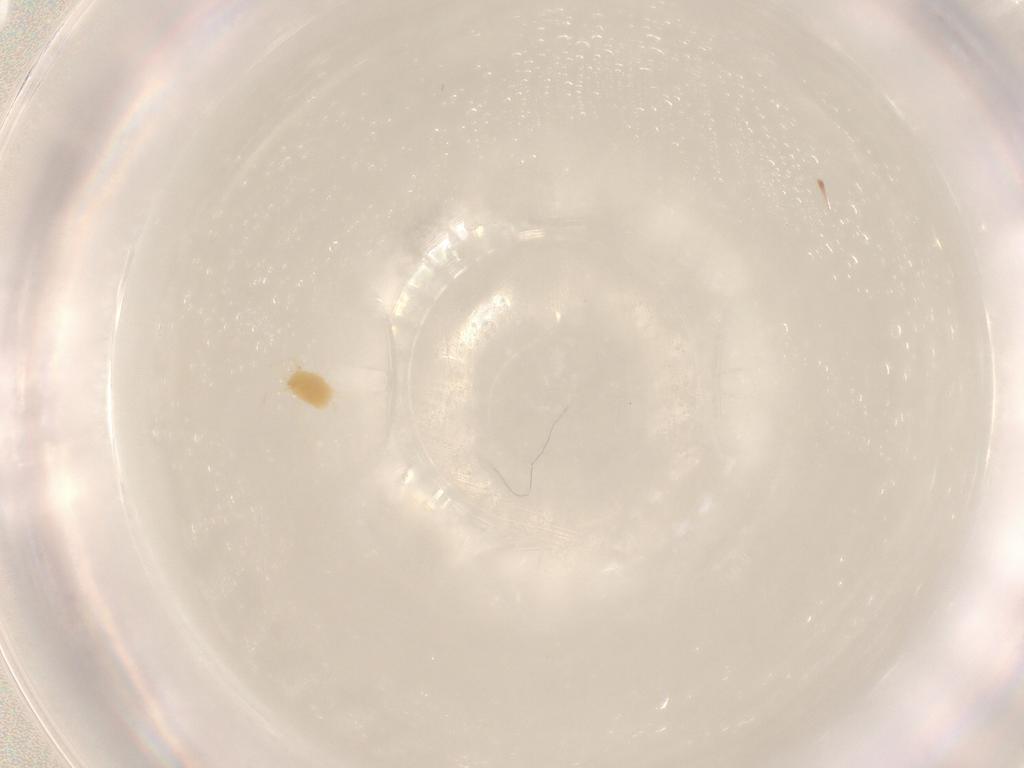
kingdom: Animalia
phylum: Arthropoda
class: Arachnida
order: Trombidiformes
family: Tetranychidae
